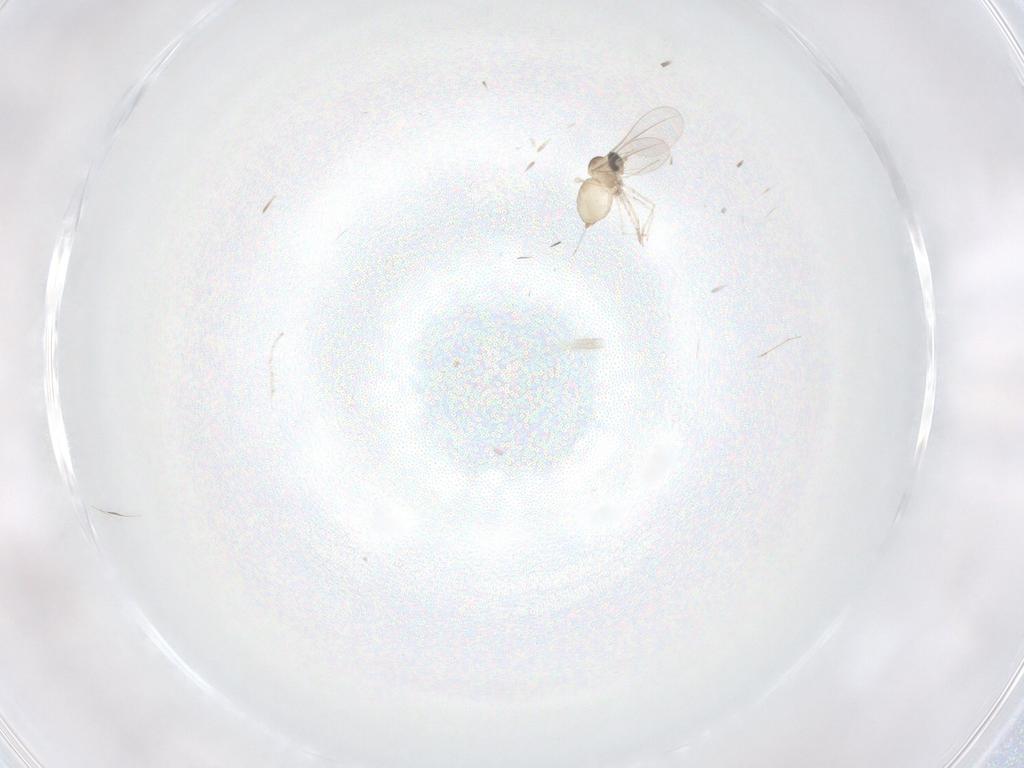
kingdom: Animalia
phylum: Arthropoda
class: Insecta
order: Diptera
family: Cecidomyiidae
